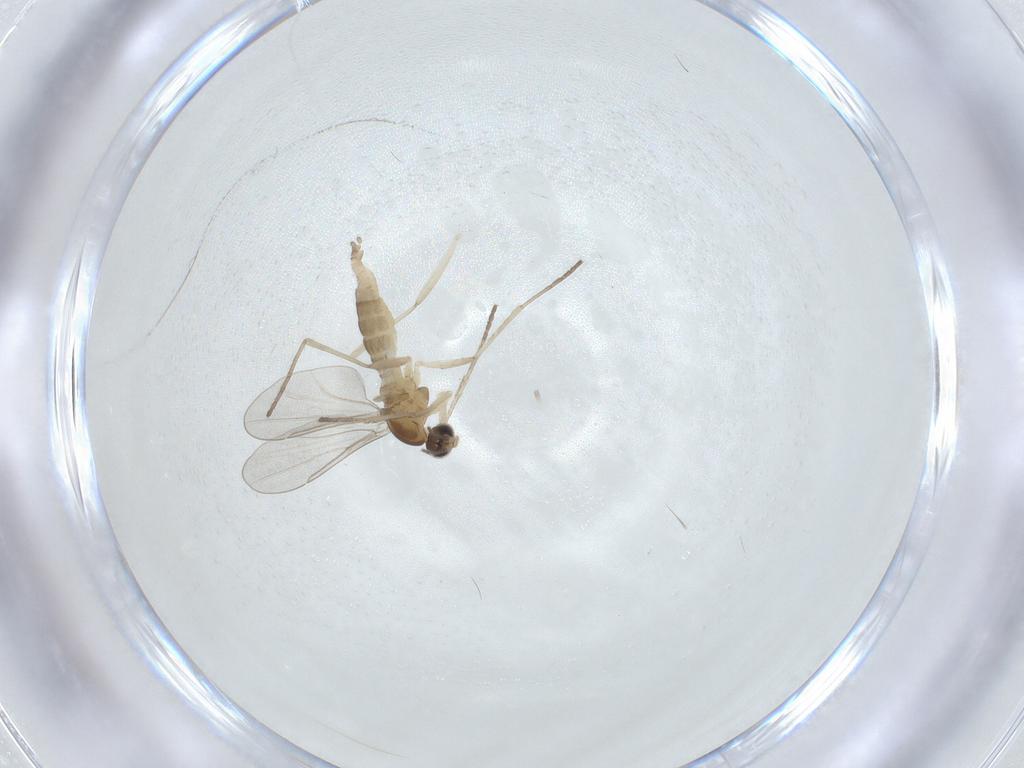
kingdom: Animalia
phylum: Arthropoda
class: Insecta
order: Diptera
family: Cecidomyiidae
